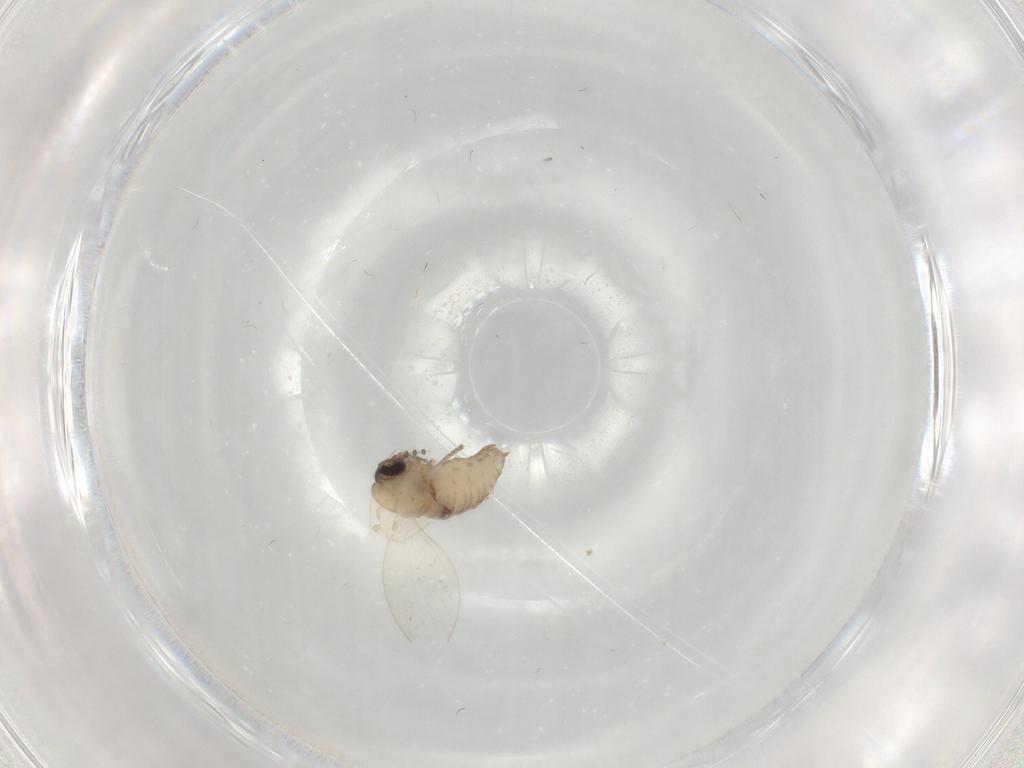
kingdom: Animalia
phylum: Arthropoda
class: Insecta
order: Diptera
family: Psychodidae
